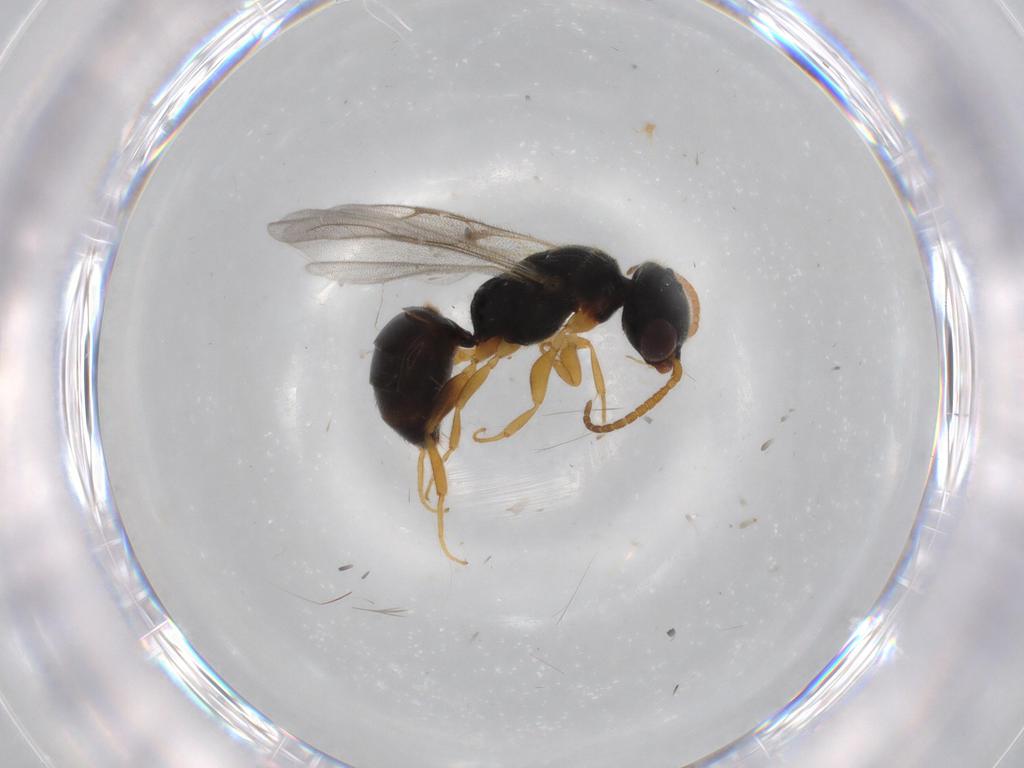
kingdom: Animalia
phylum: Arthropoda
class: Insecta
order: Hymenoptera
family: Bethylidae
